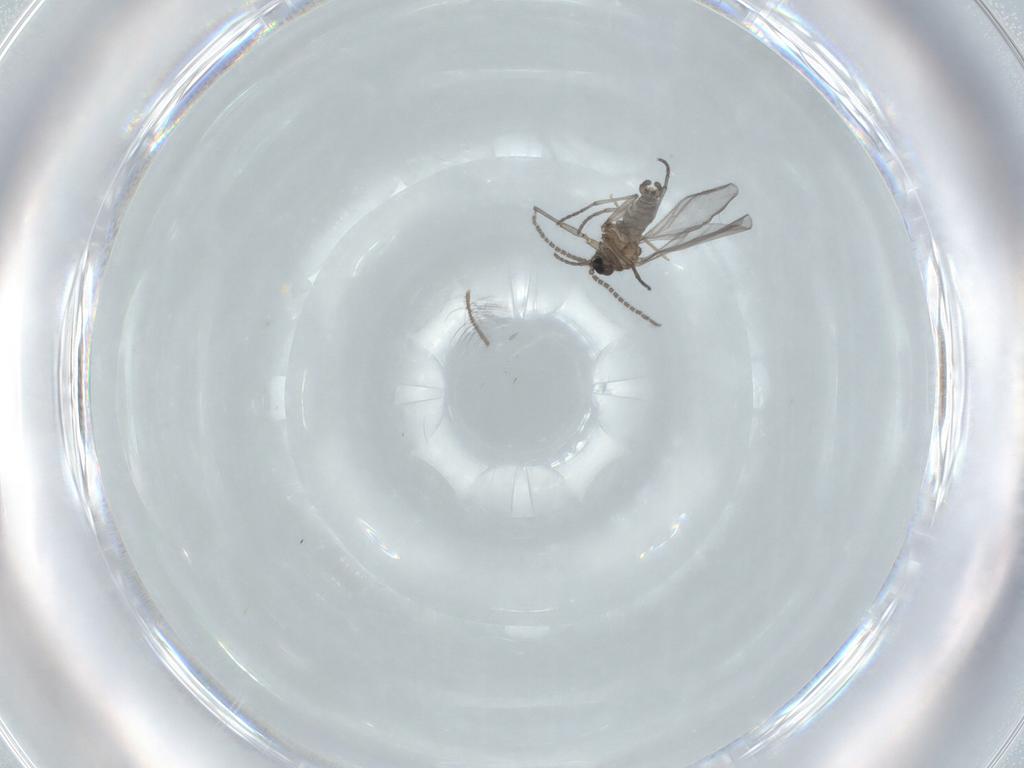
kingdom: Animalia
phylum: Arthropoda
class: Insecta
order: Diptera
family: Sciaridae
